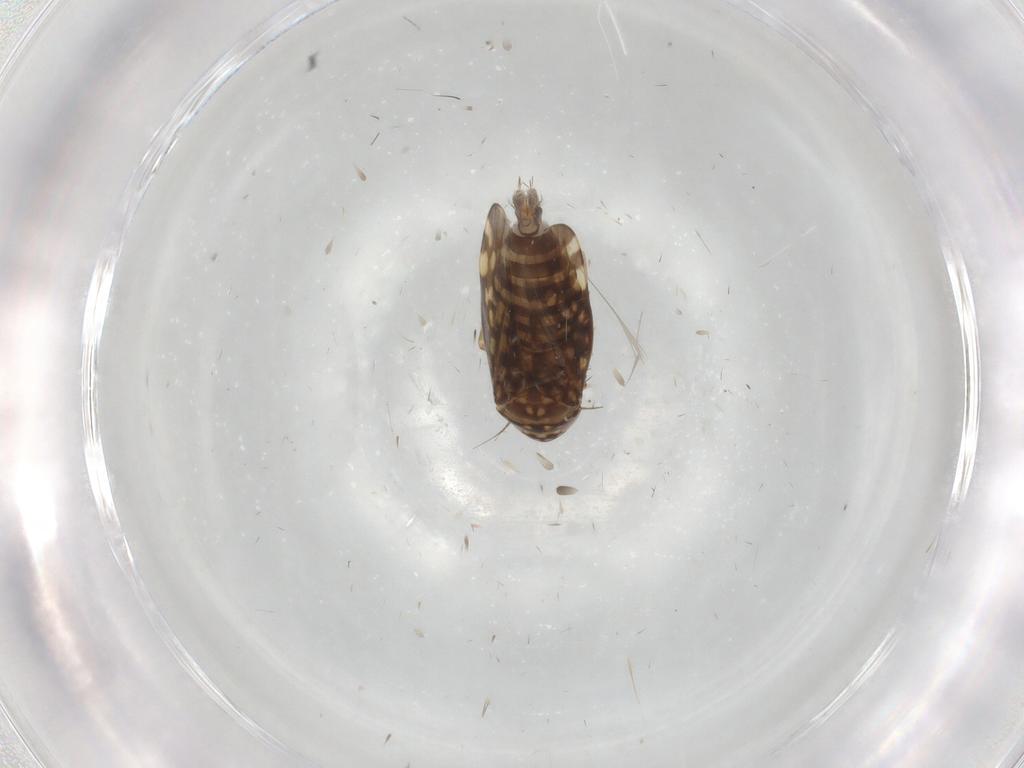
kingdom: Animalia
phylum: Arthropoda
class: Insecta
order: Hemiptera
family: Cicadellidae
